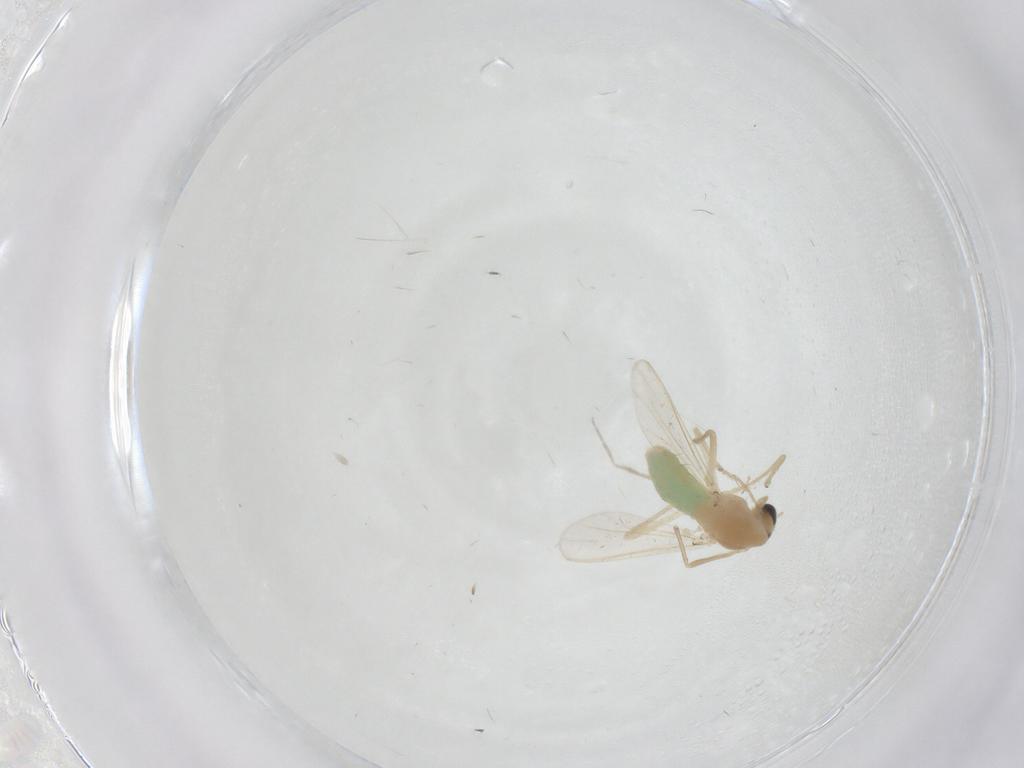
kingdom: Animalia
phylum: Arthropoda
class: Insecta
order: Diptera
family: Chironomidae
